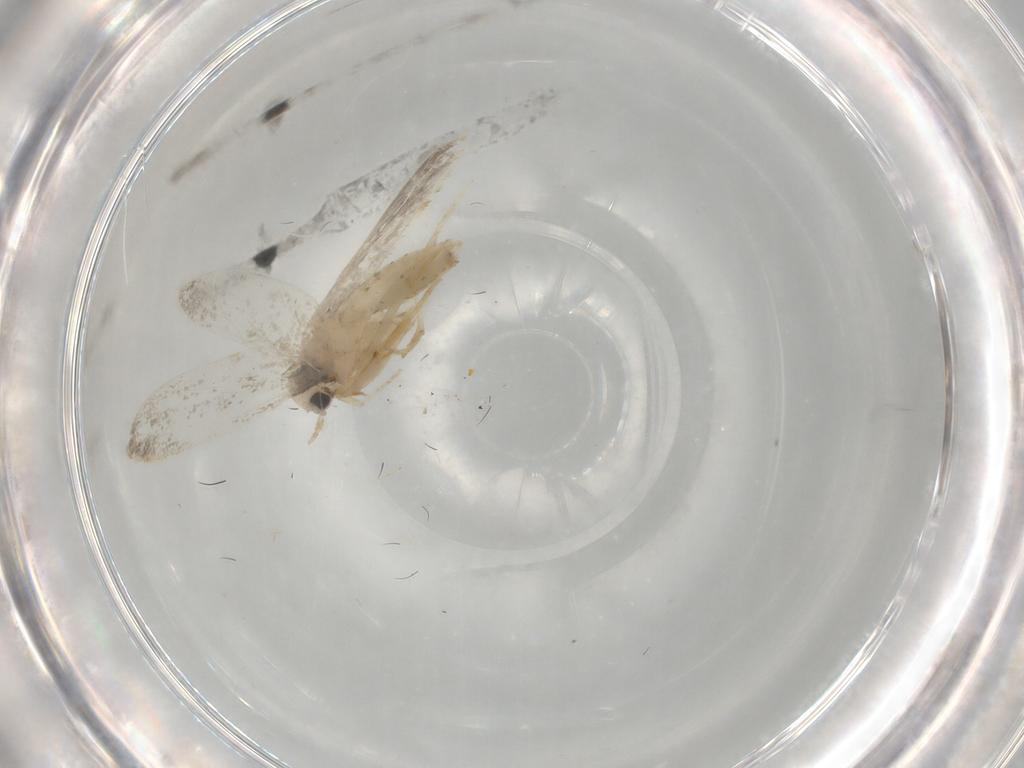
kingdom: Animalia
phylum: Arthropoda
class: Insecta
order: Lepidoptera
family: Psychidae
